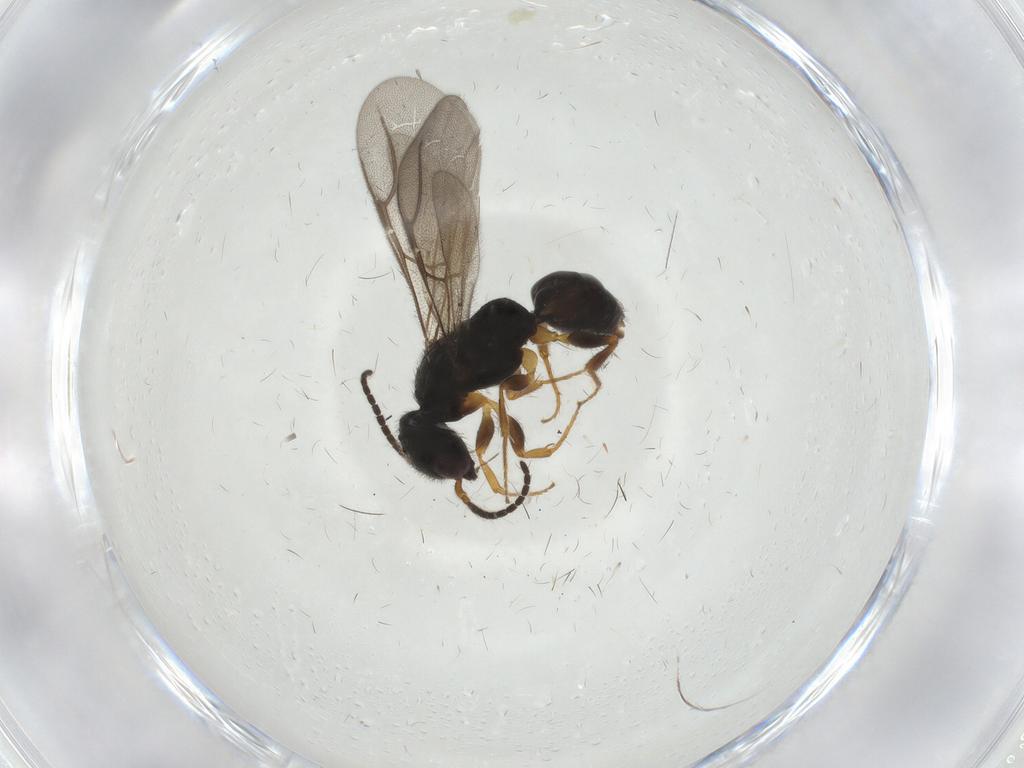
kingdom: Animalia
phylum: Arthropoda
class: Insecta
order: Hymenoptera
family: Bethylidae
